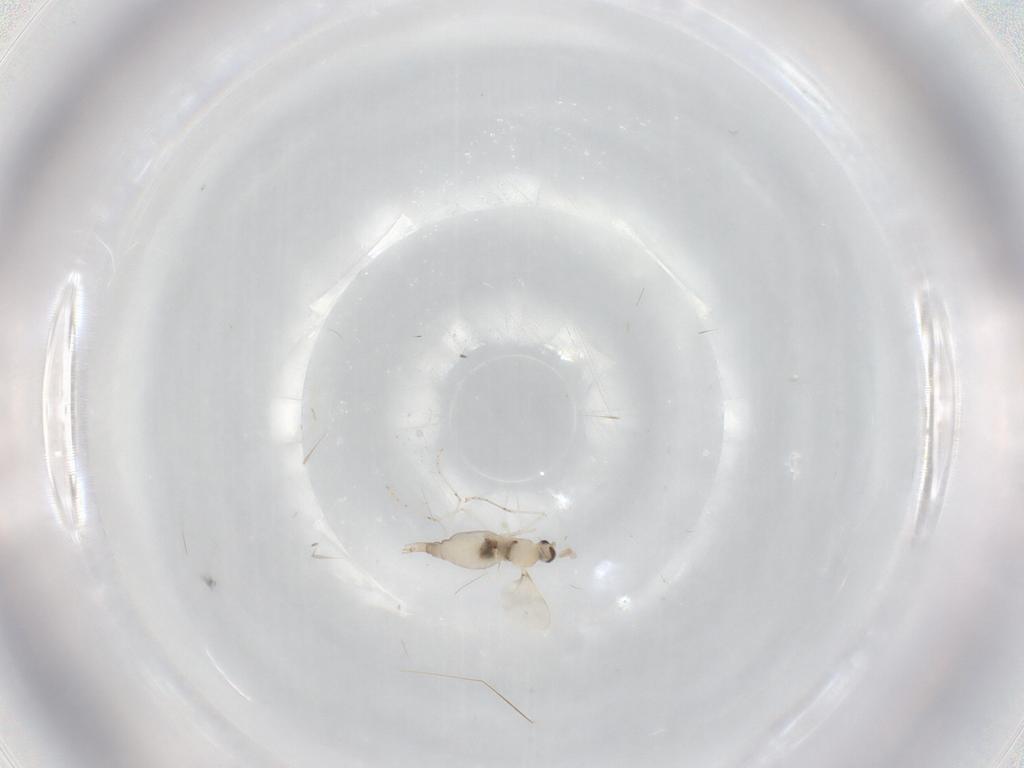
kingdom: Animalia
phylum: Arthropoda
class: Insecta
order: Diptera
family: Cecidomyiidae
